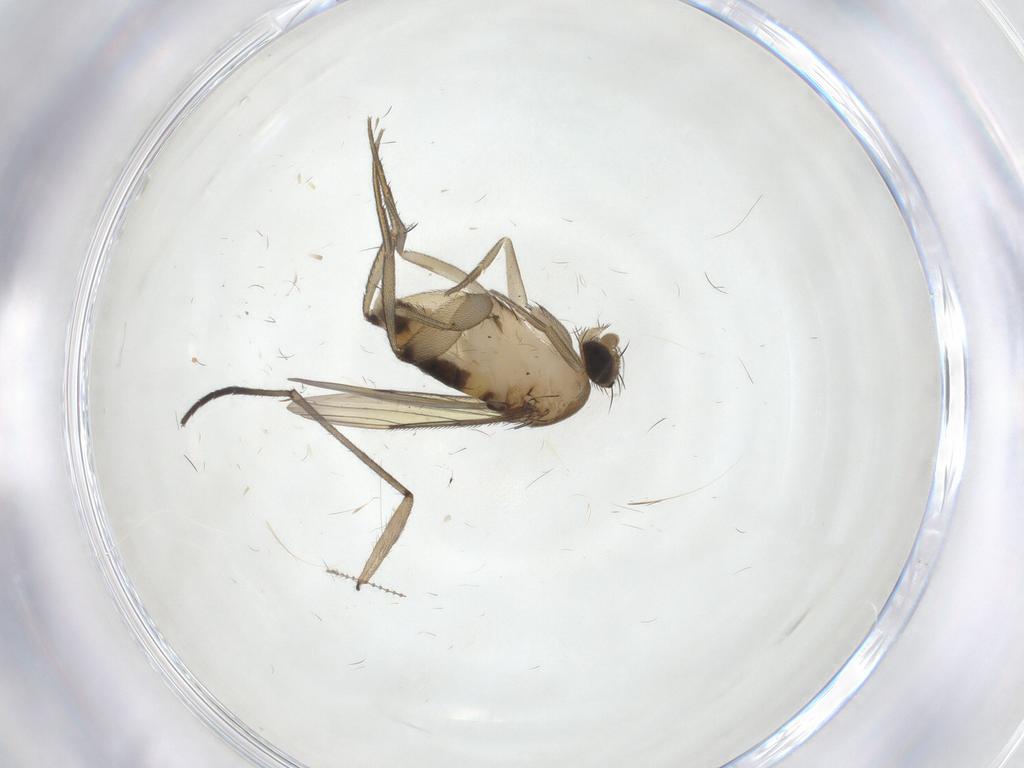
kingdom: Animalia
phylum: Arthropoda
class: Insecta
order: Diptera
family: Phoridae
